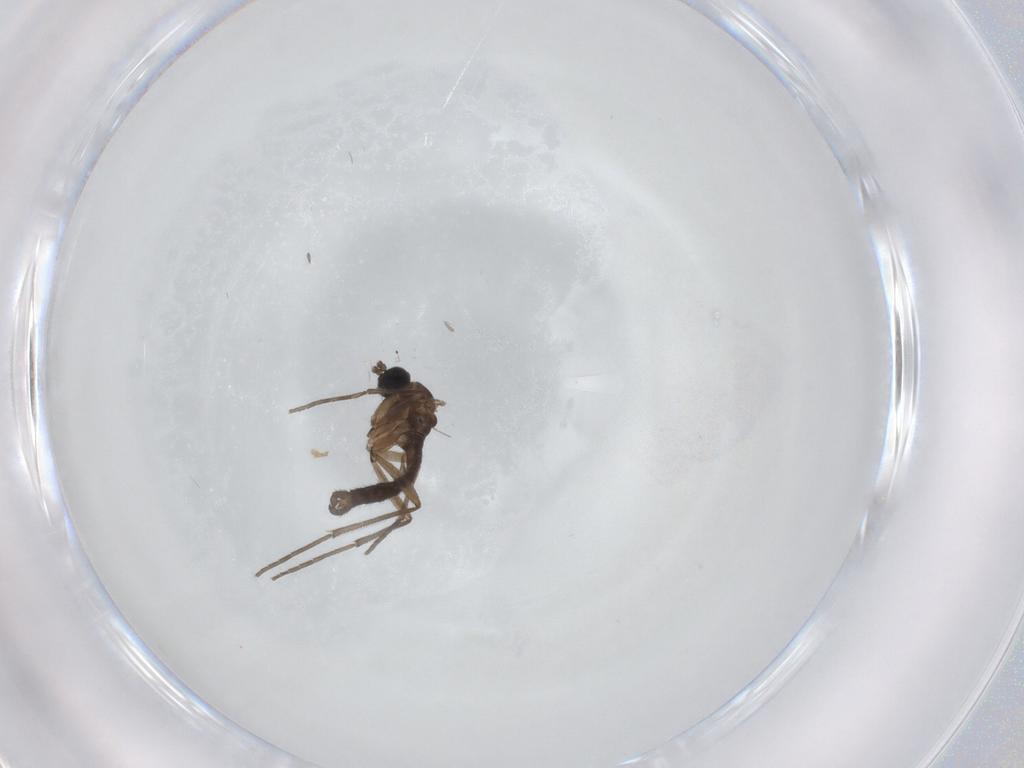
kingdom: Animalia
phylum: Arthropoda
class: Insecta
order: Diptera
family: Sciaridae
